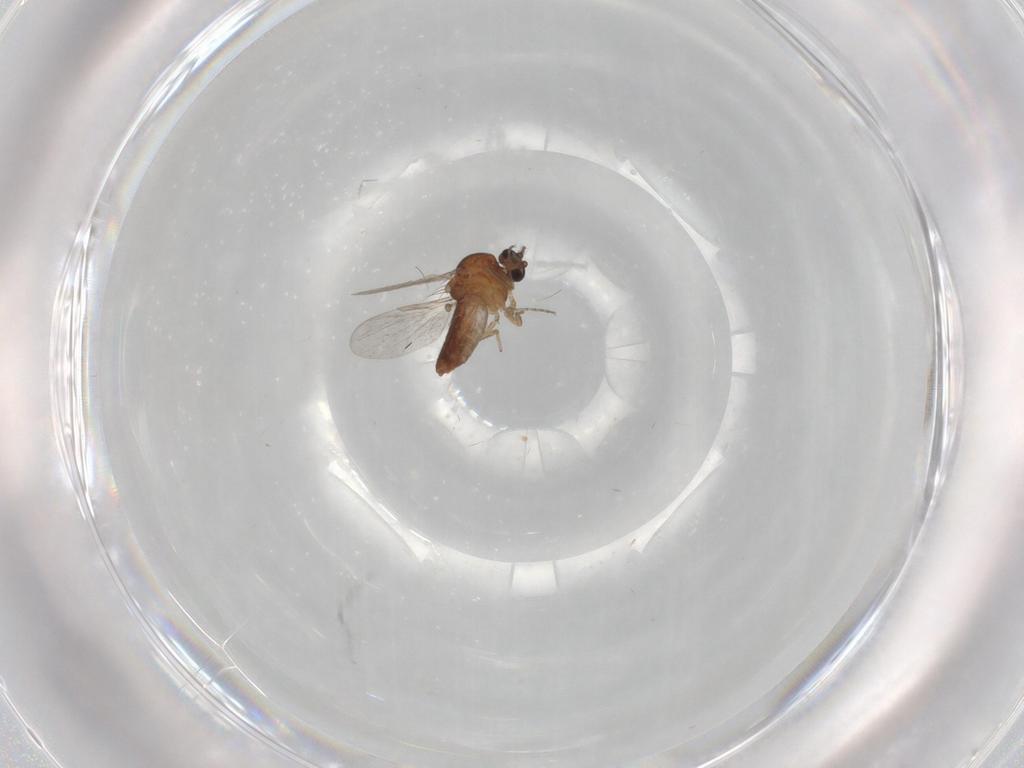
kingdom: Animalia
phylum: Arthropoda
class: Insecta
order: Diptera
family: Ceratopogonidae
